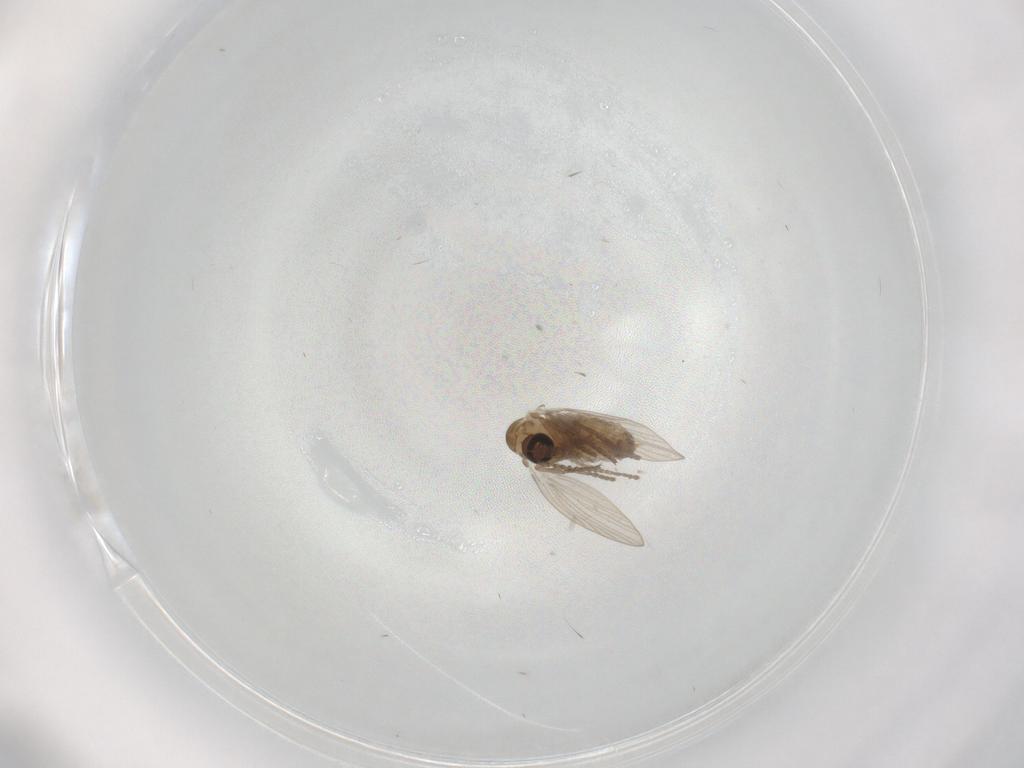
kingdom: Animalia
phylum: Arthropoda
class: Insecta
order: Diptera
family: Psychodidae
